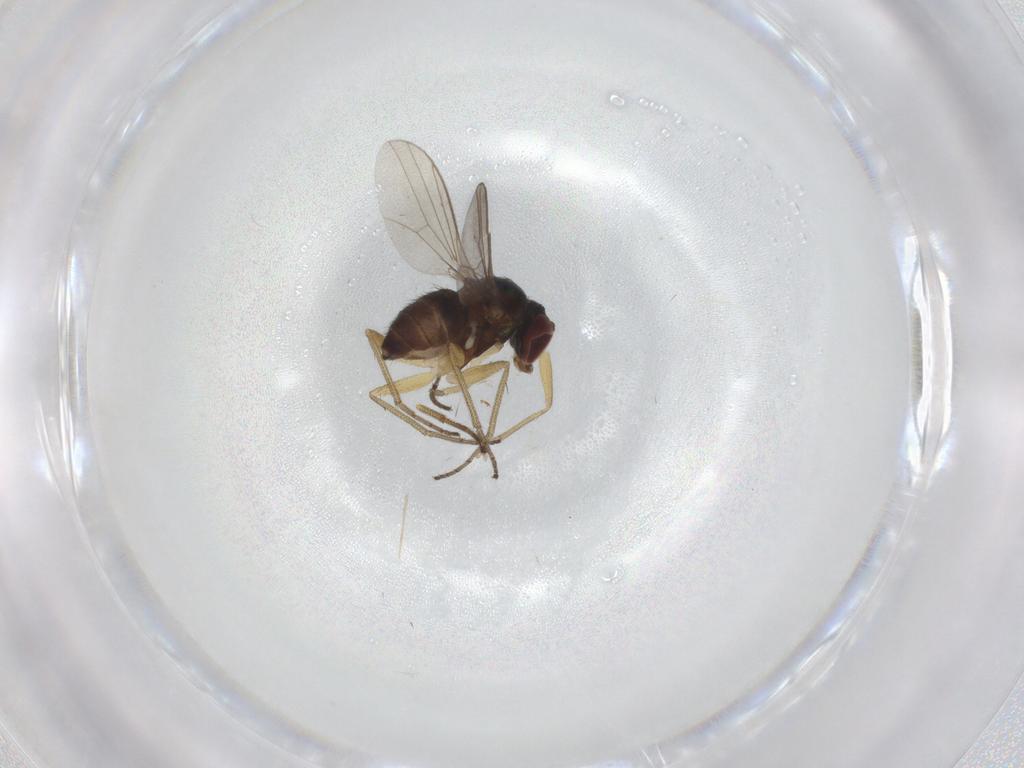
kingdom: Animalia
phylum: Arthropoda
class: Insecta
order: Diptera
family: Dolichopodidae
